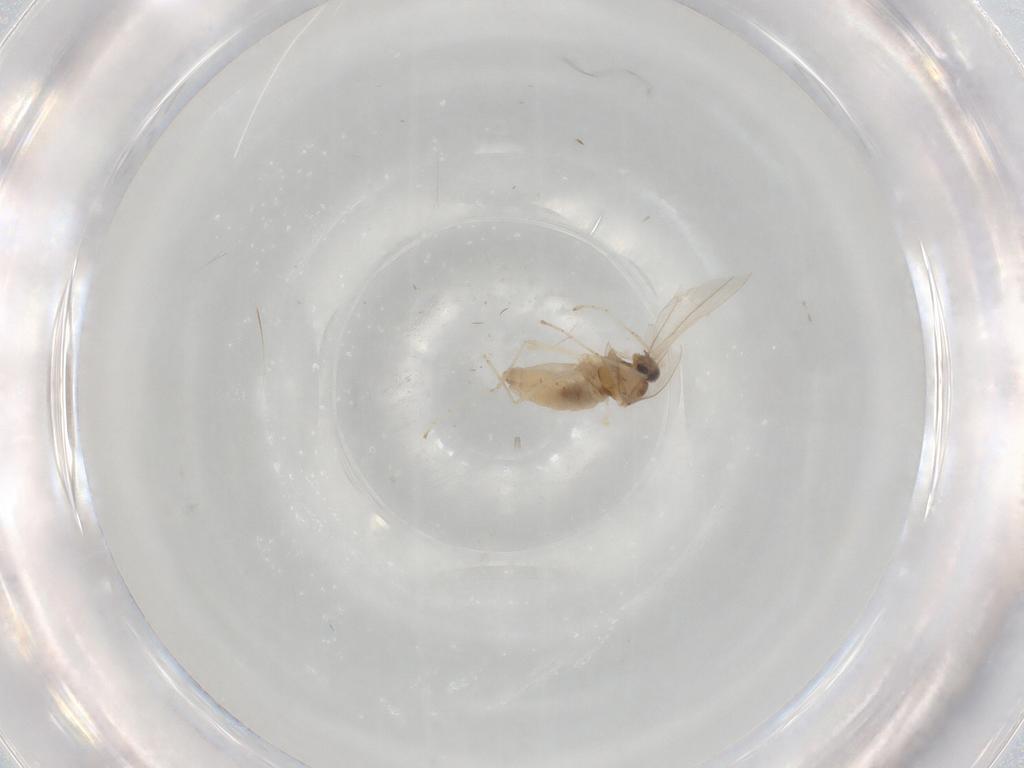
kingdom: Animalia
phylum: Arthropoda
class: Insecta
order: Diptera
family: Cecidomyiidae
